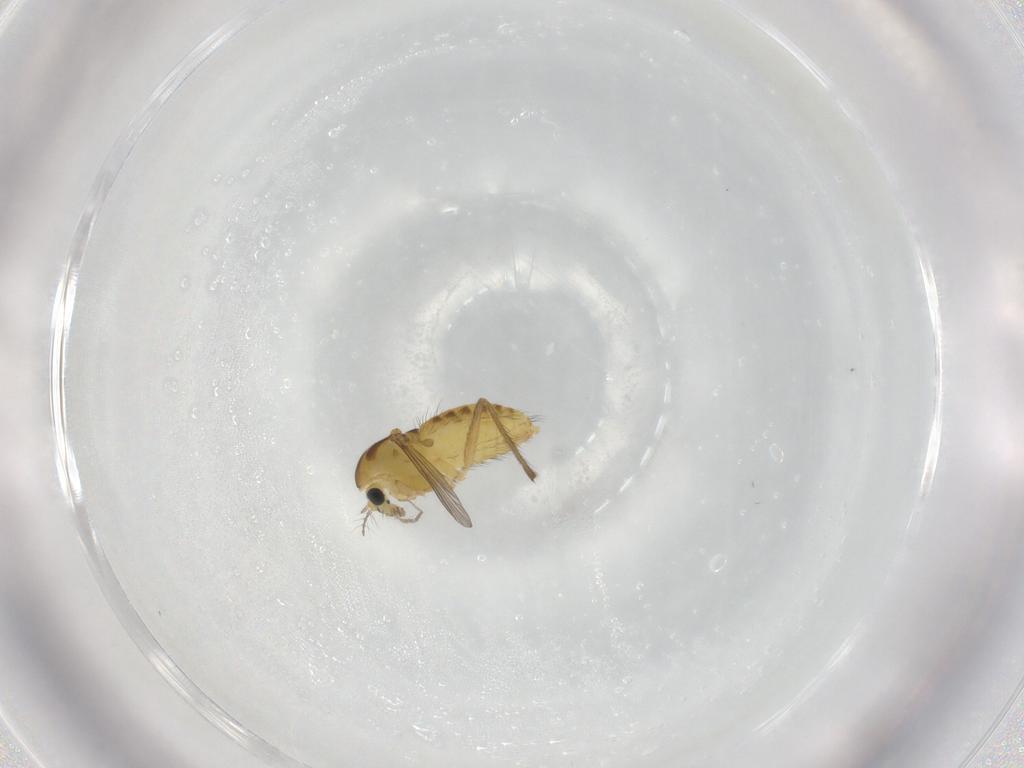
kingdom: Animalia
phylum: Arthropoda
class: Insecta
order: Diptera
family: Chironomidae
